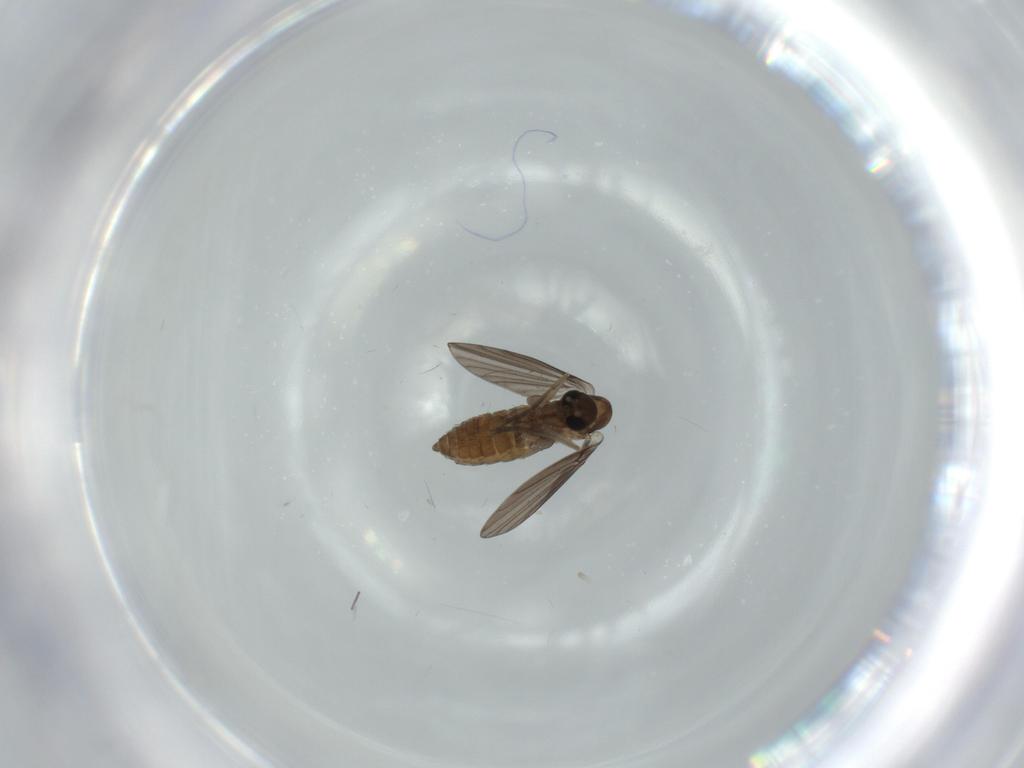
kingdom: Animalia
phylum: Arthropoda
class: Insecta
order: Diptera
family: Psychodidae
